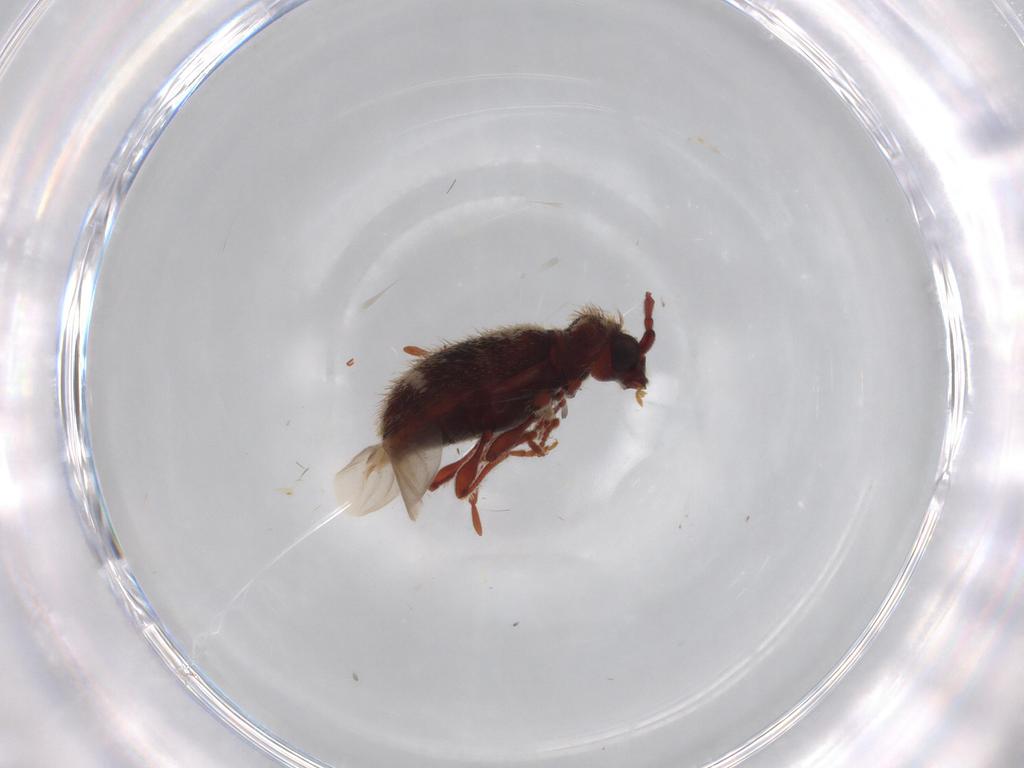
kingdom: Animalia
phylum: Arthropoda
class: Insecta
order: Coleoptera
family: Ptinidae
